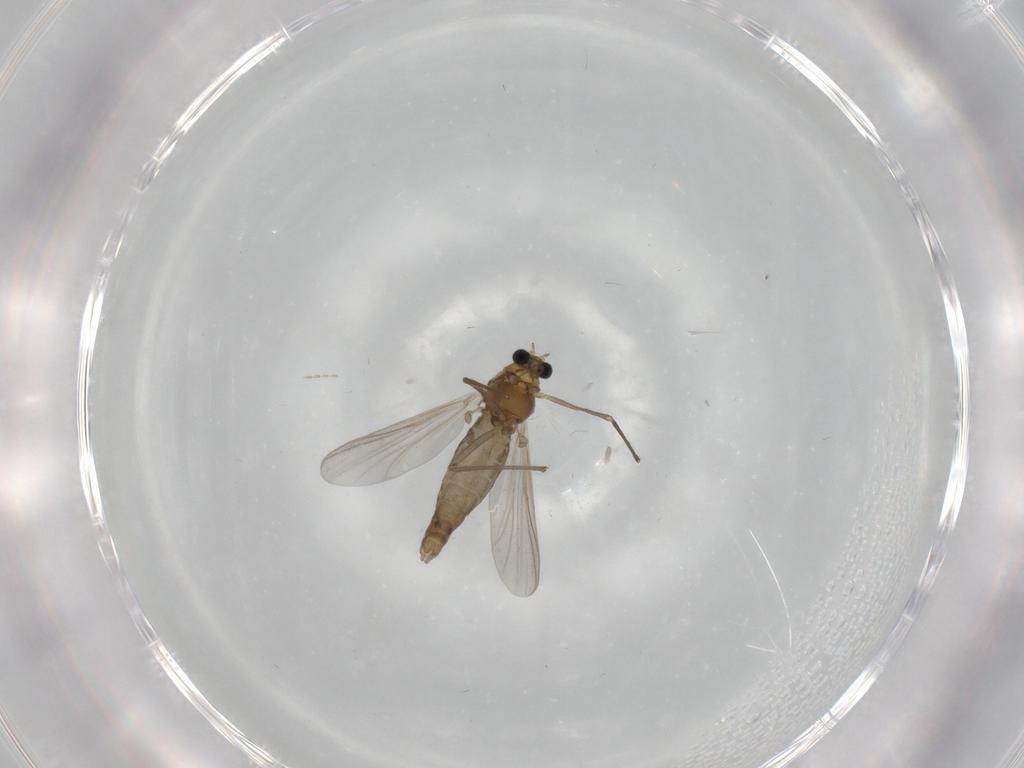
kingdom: Animalia
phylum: Arthropoda
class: Insecta
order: Diptera
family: Chironomidae
